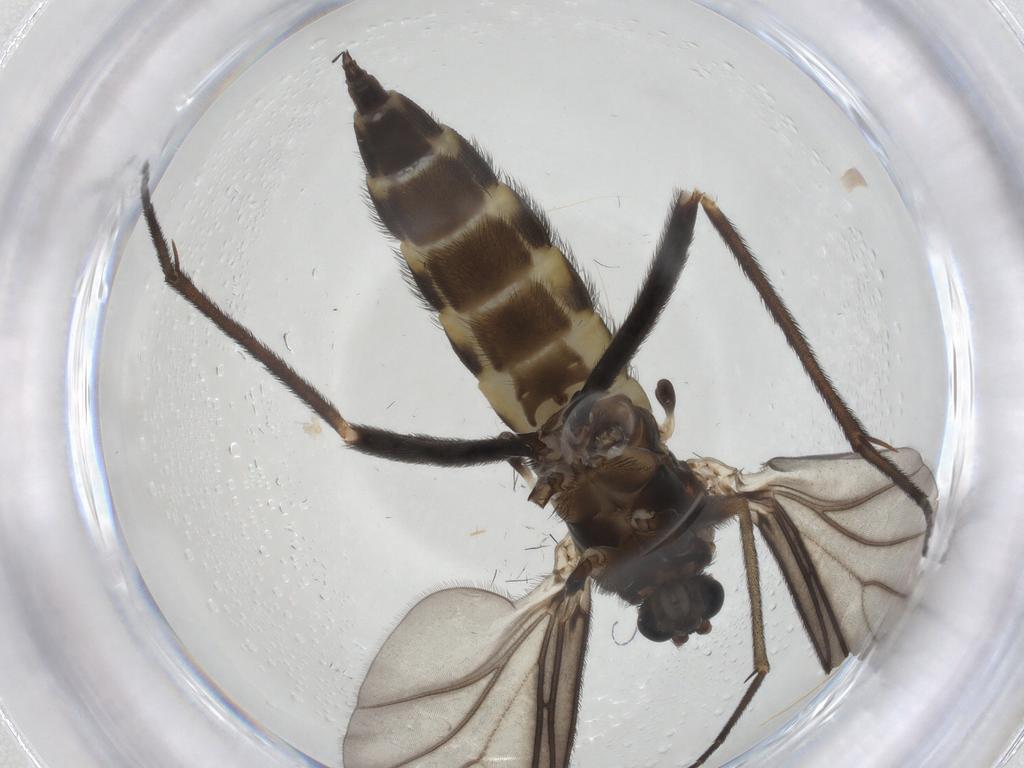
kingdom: Animalia
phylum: Arthropoda
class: Insecta
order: Diptera
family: Sciaridae
